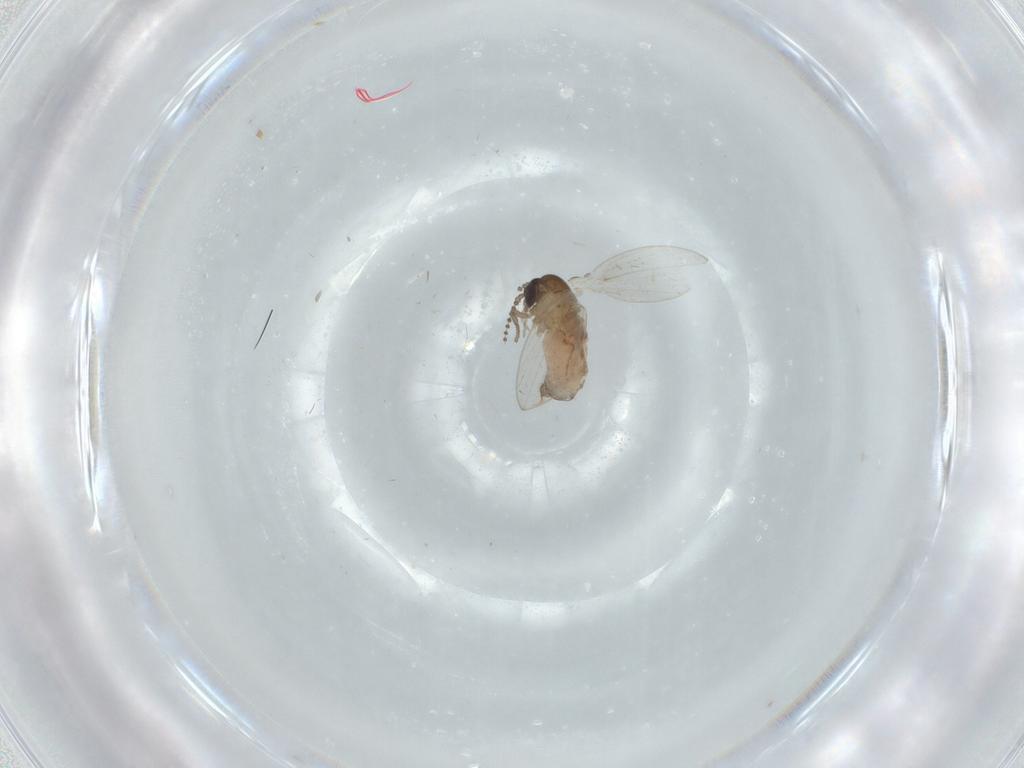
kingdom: Animalia
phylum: Arthropoda
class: Insecta
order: Diptera
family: Psychodidae
